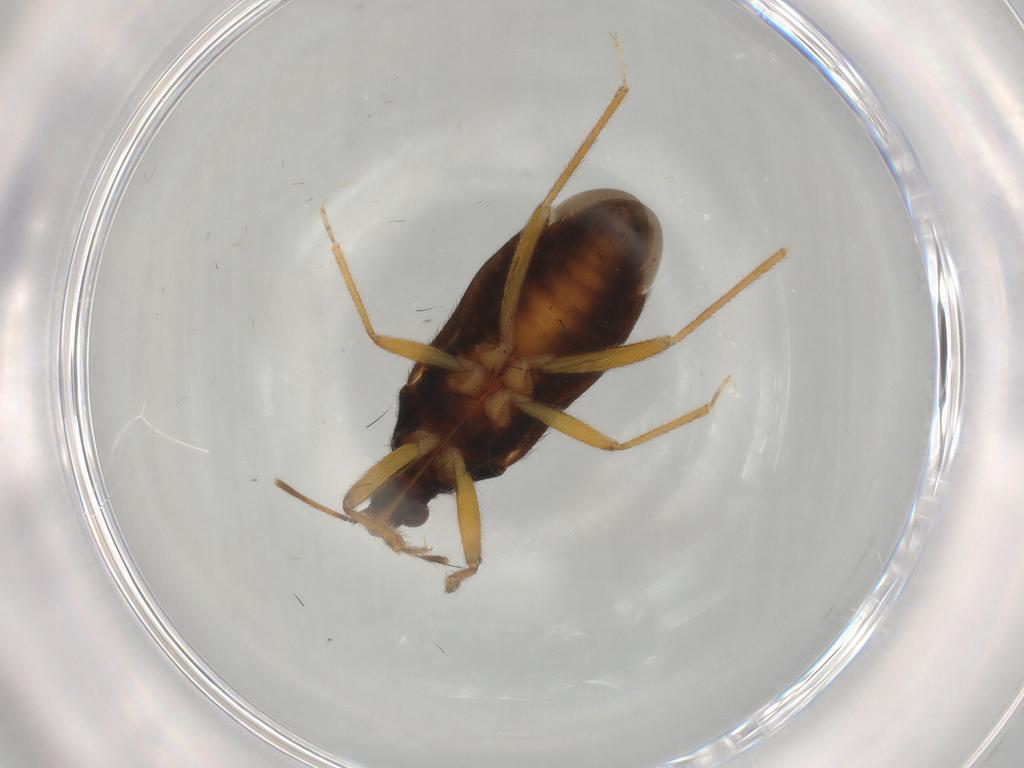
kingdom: Animalia
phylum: Arthropoda
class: Insecta
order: Hemiptera
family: Anthocoridae
